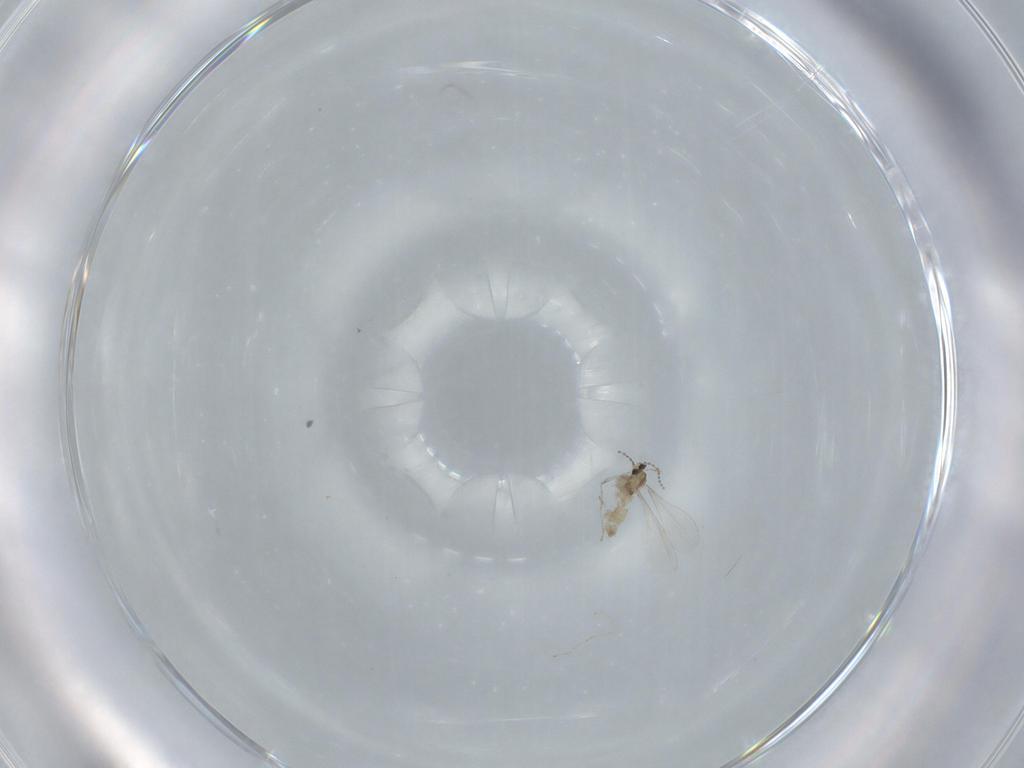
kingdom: Animalia
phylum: Arthropoda
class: Insecta
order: Diptera
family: Cecidomyiidae
